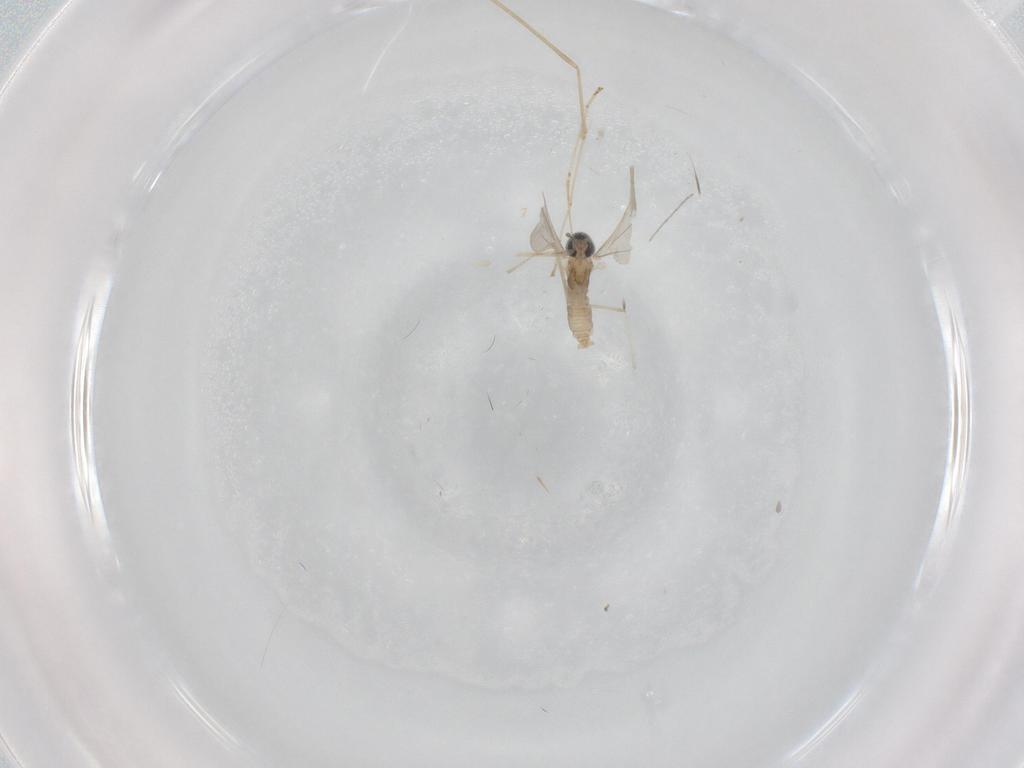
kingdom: Animalia
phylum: Arthropoda
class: Insecta
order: Diptera
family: Cecidomyiidae
